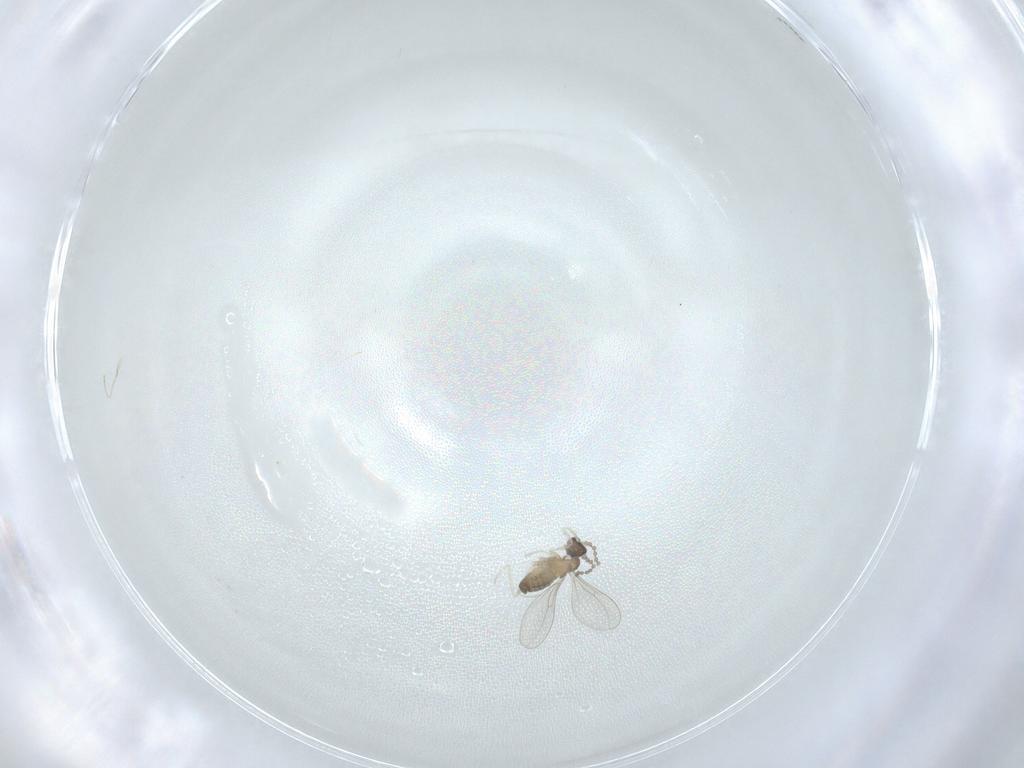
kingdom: Animalia
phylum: Arthropoda
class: Insecta
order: Diptera
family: Cecidomyiidae
